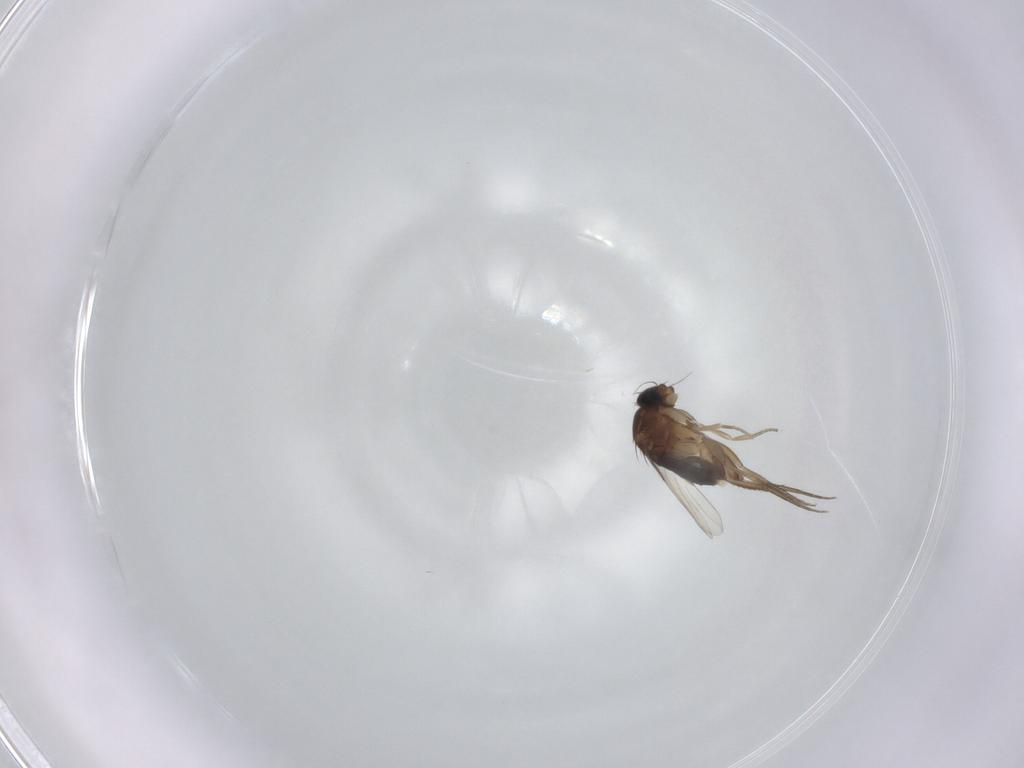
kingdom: Animalia
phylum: Arthropoda
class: Insecta
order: Diptera
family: Phoridae
